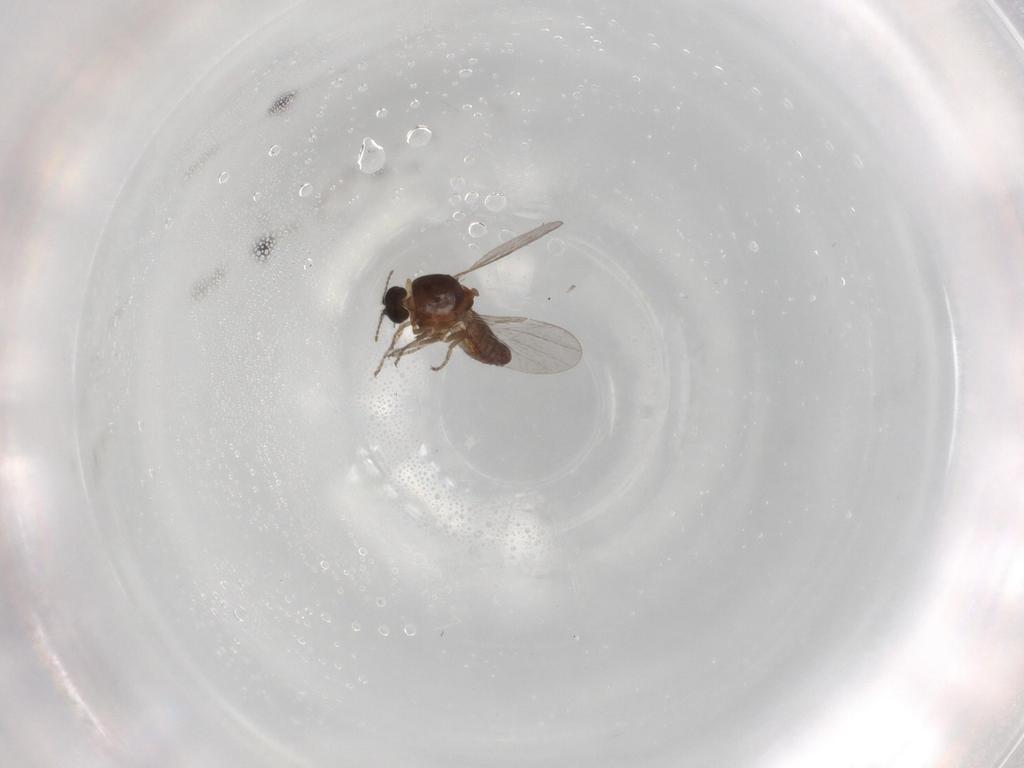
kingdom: Animalia
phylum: Arthropoda
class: Insecta
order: Diptera
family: Ceratopogonidae
